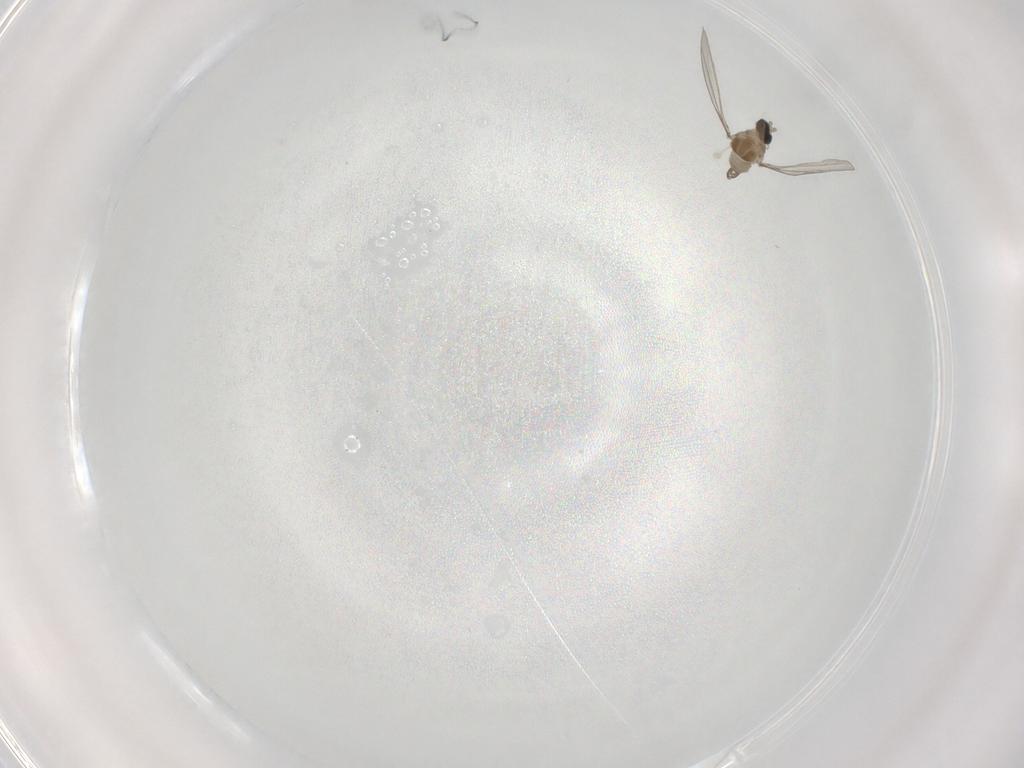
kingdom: Animalia
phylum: Arthropoda
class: Insecta
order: Diptera
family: Cecidomyiidae
